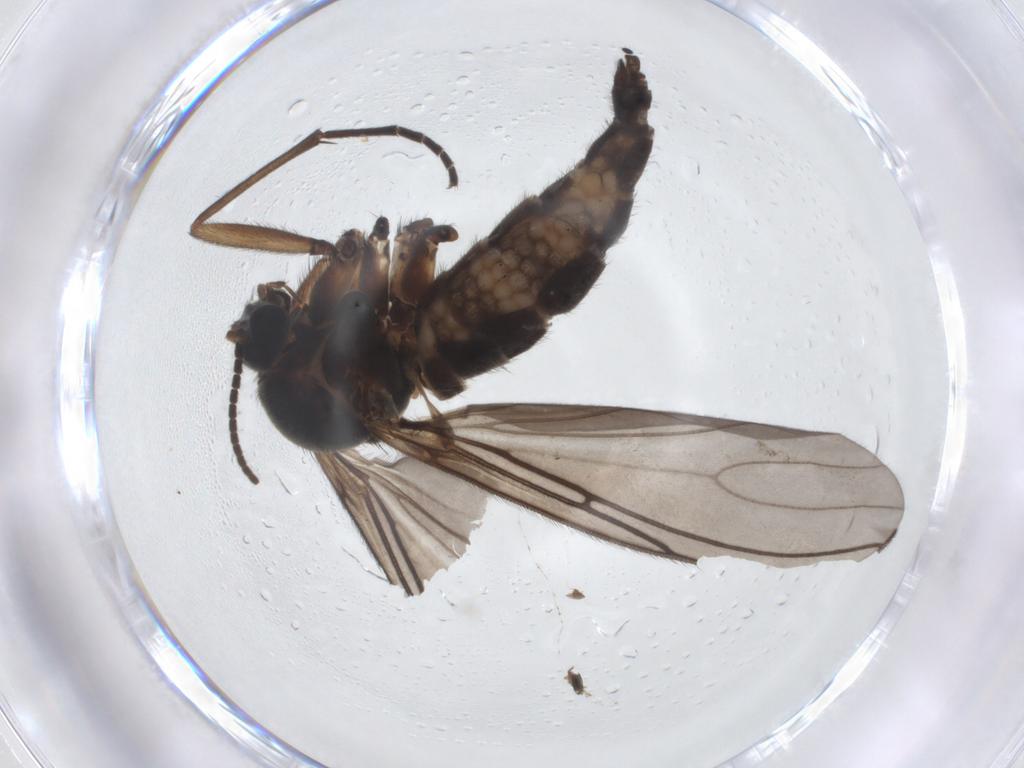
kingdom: Animalia
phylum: Arthropoda
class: Insecta
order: Diptera
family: Sciaridae
